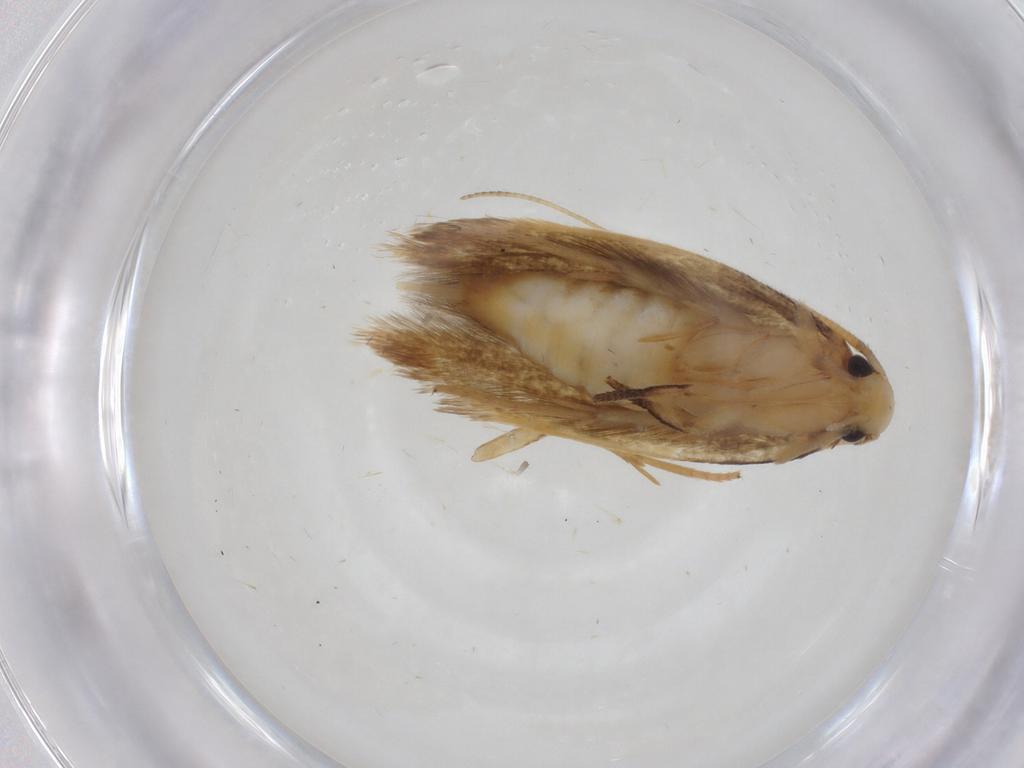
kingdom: Animalia
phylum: Arthropoda
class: Insecta
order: Lepidoptera
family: Tineidae
